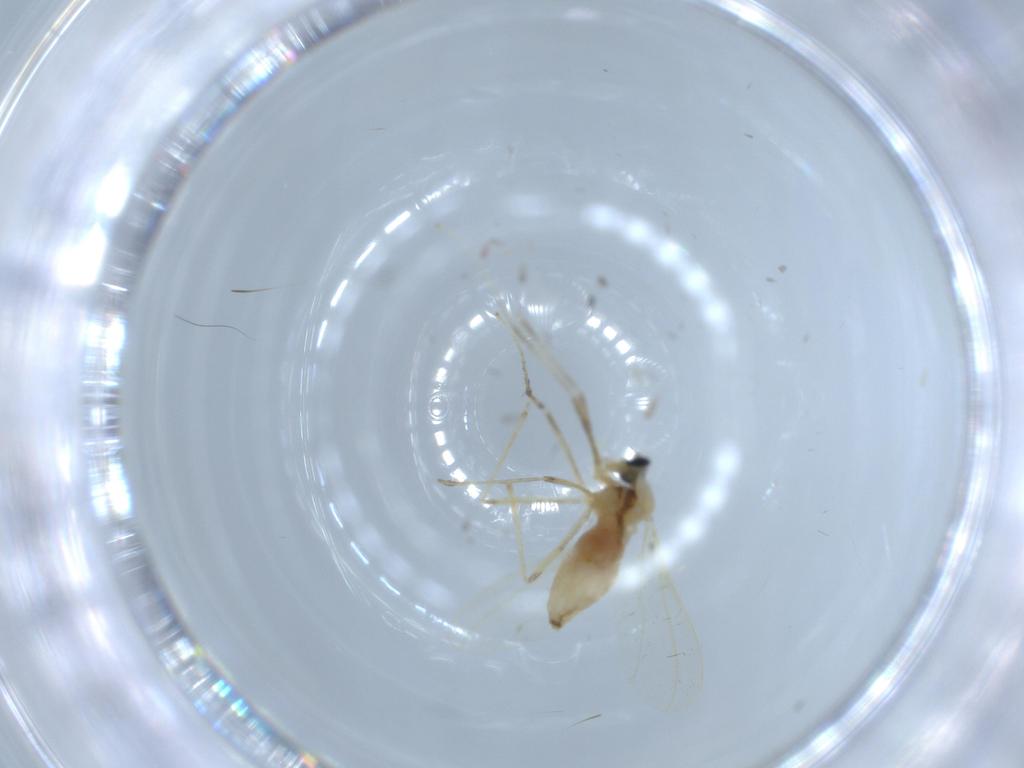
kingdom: Animalia
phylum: Arthropoda
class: Insecta
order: Diptera
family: Cecidomyiidae
